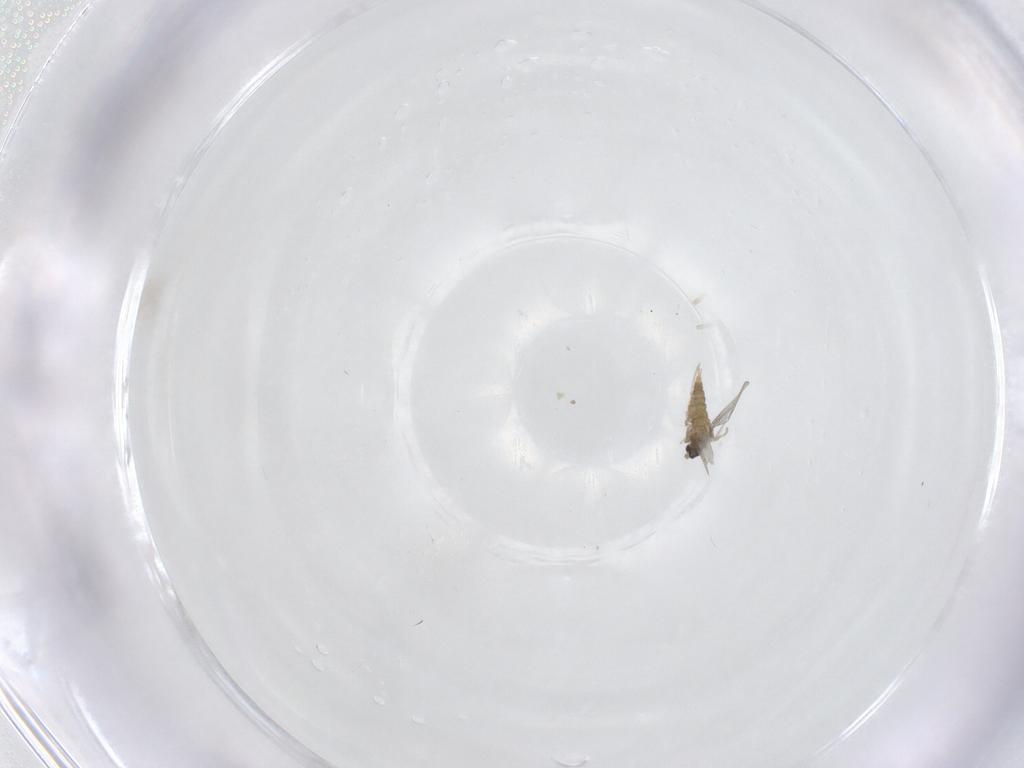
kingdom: Animalia
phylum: Arthropoda
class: Insecta
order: Diptera
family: Cecidomyiidae
